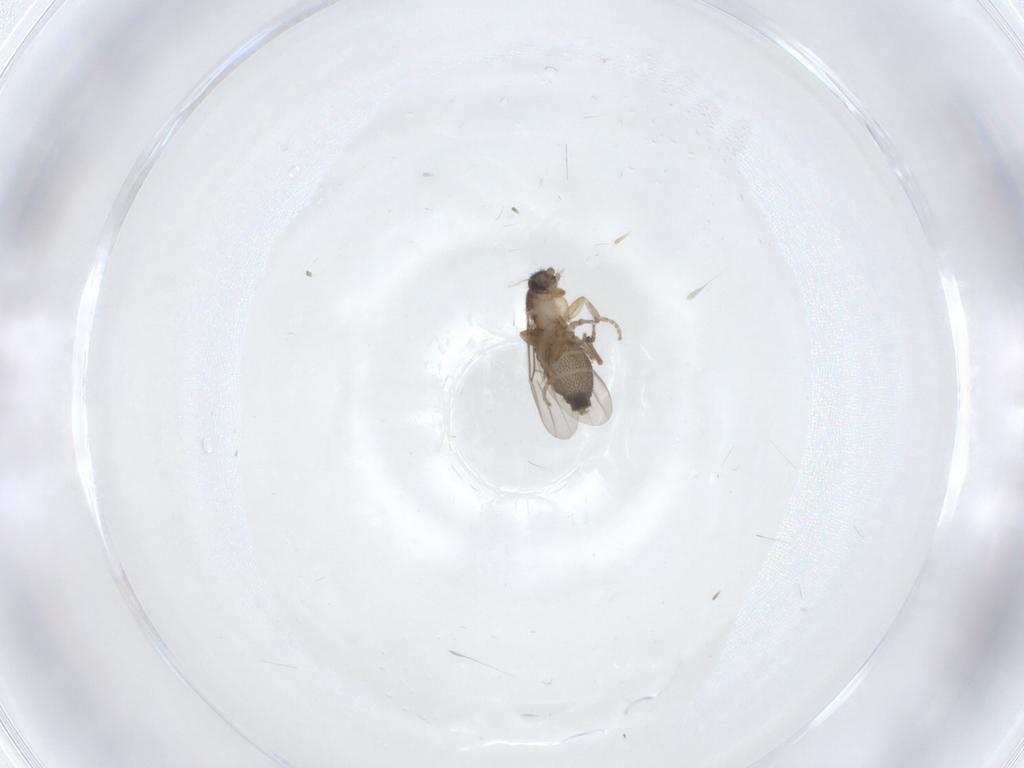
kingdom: Animalia
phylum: Arthropoda
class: Insecta
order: Diptera
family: Phoridae
